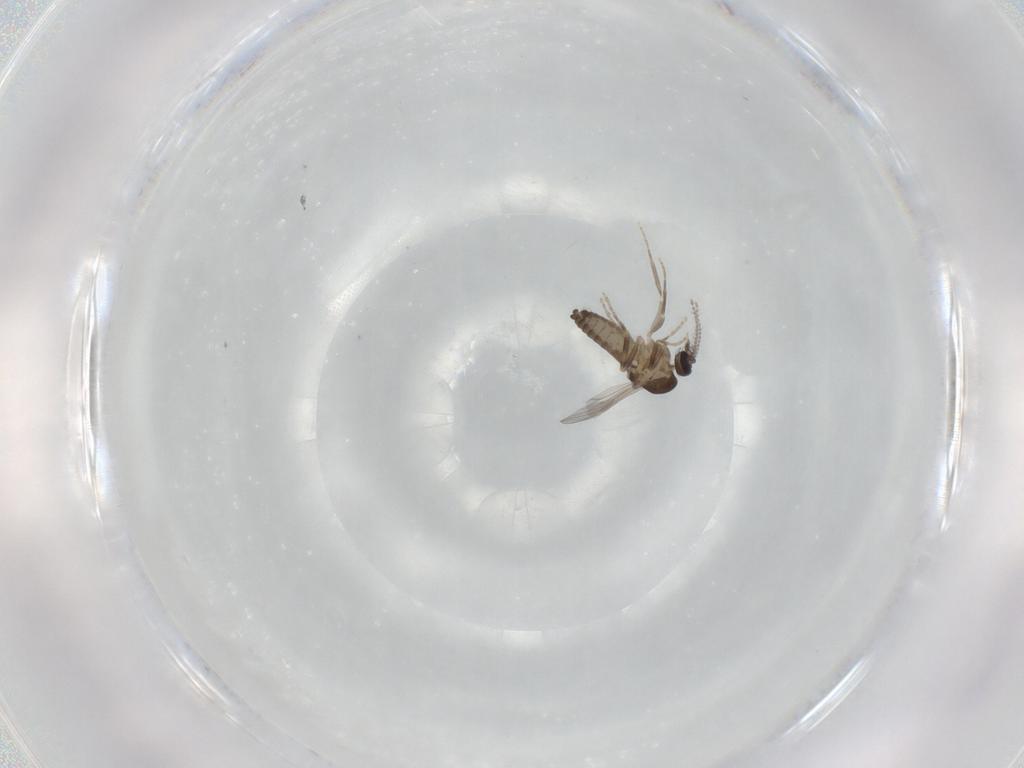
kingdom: Animalia
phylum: Arthropoda
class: Insecta
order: Diptera
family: Ceratopogonidae
